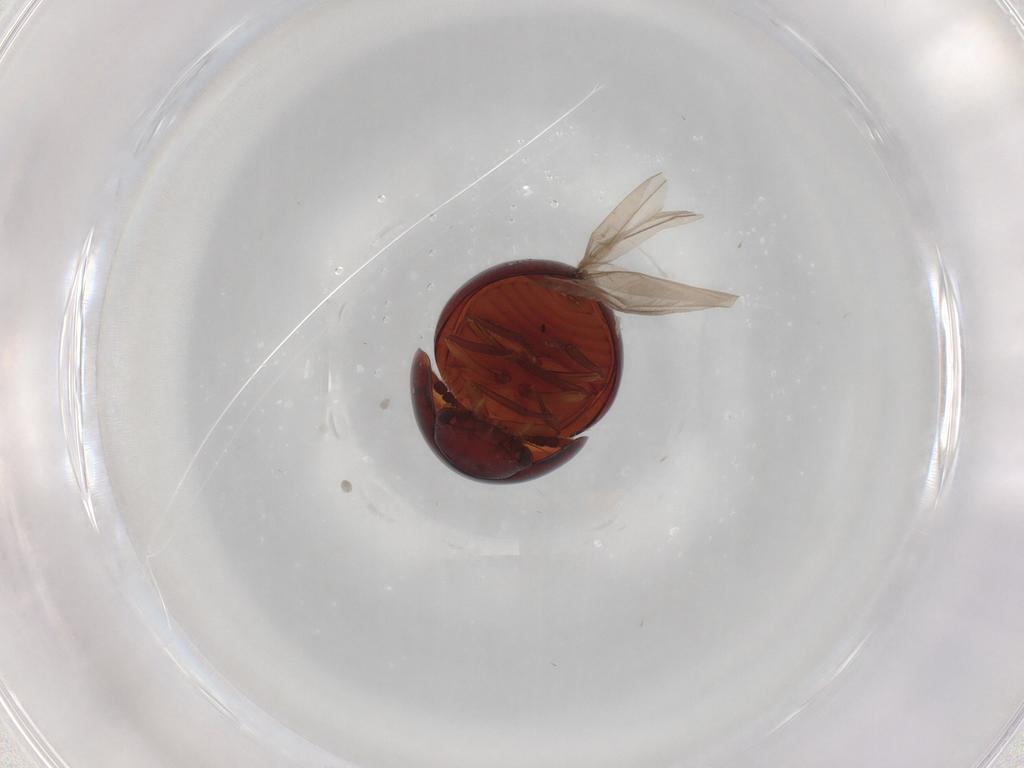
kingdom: Animalia
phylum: Arthropoda
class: Insecta
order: Coleoptera
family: Leiodidae
